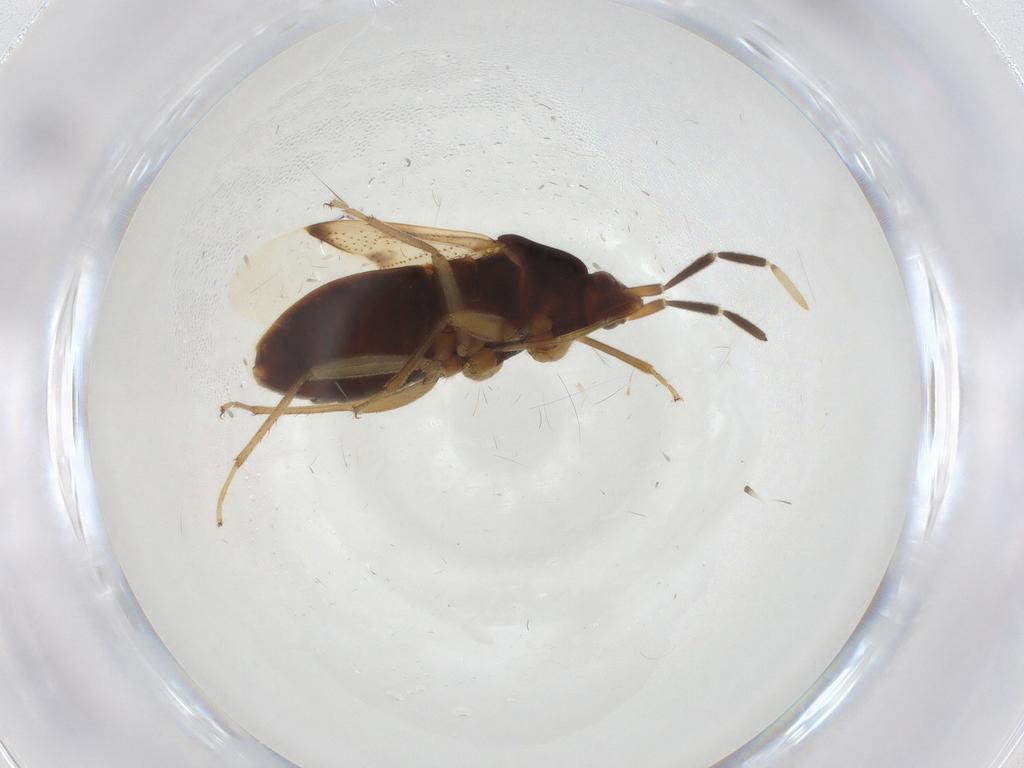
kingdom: Animalia
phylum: Arthropoda
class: Insecta
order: Hemiptera
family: Rhyparochromidae
